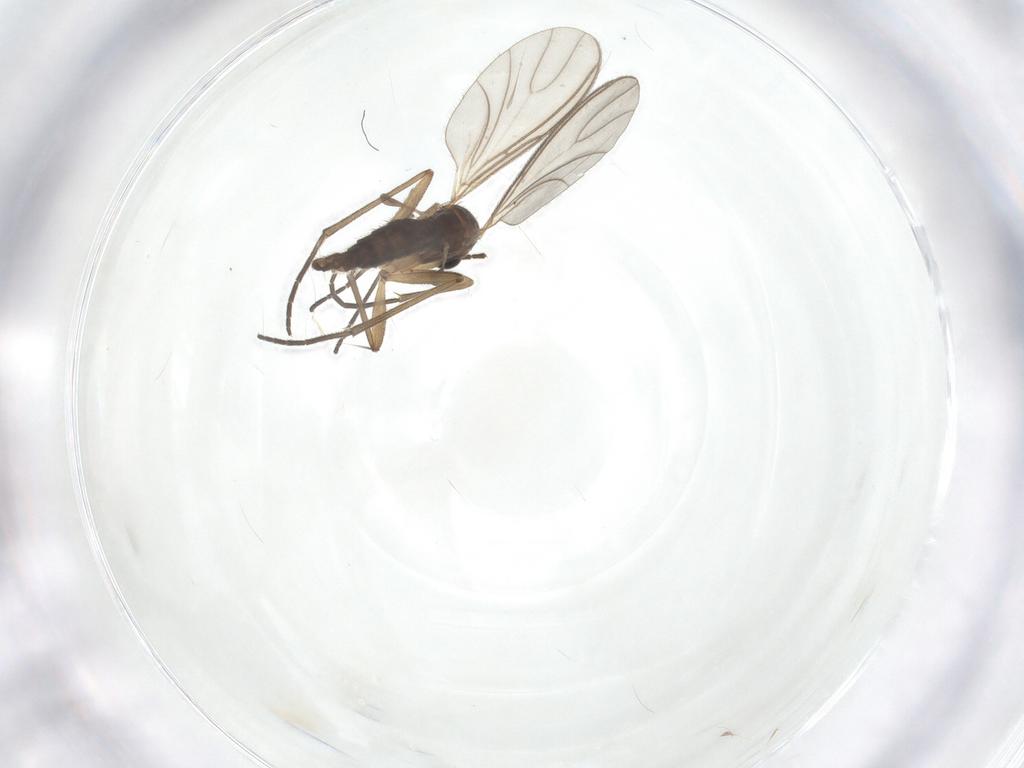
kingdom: Animalia
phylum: Arthropoda
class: Insecta
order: Diptera
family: Sciaridae
